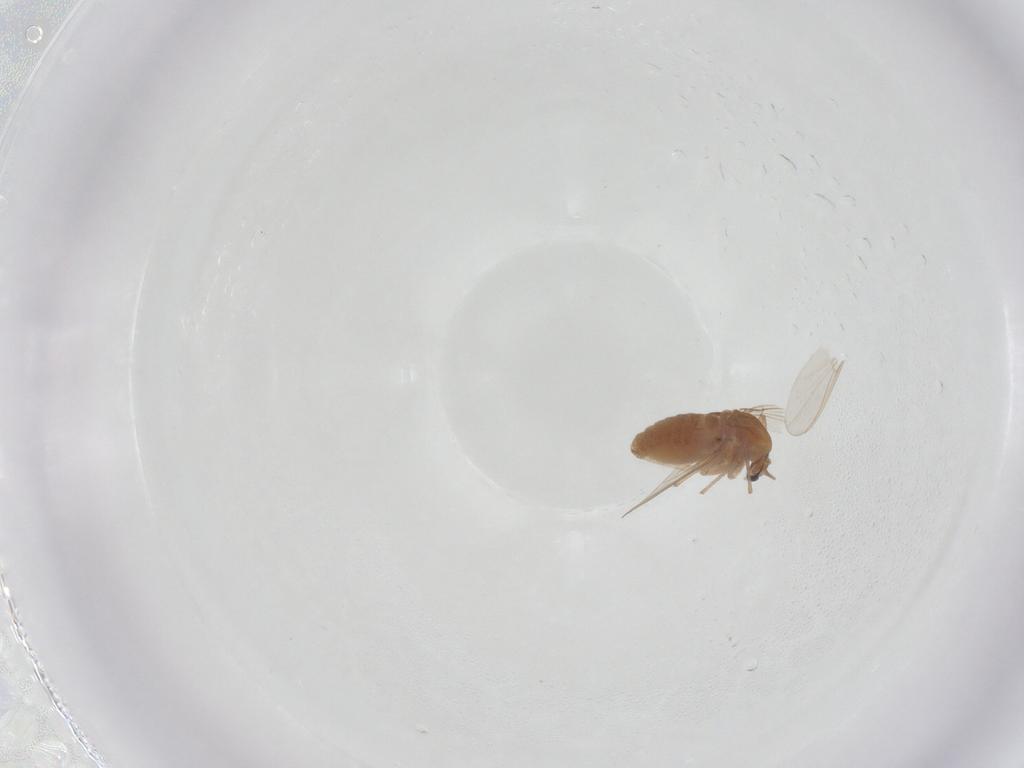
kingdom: Animalia
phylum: Arthropoda
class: Insecta
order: Diptera
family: Chironomidae
